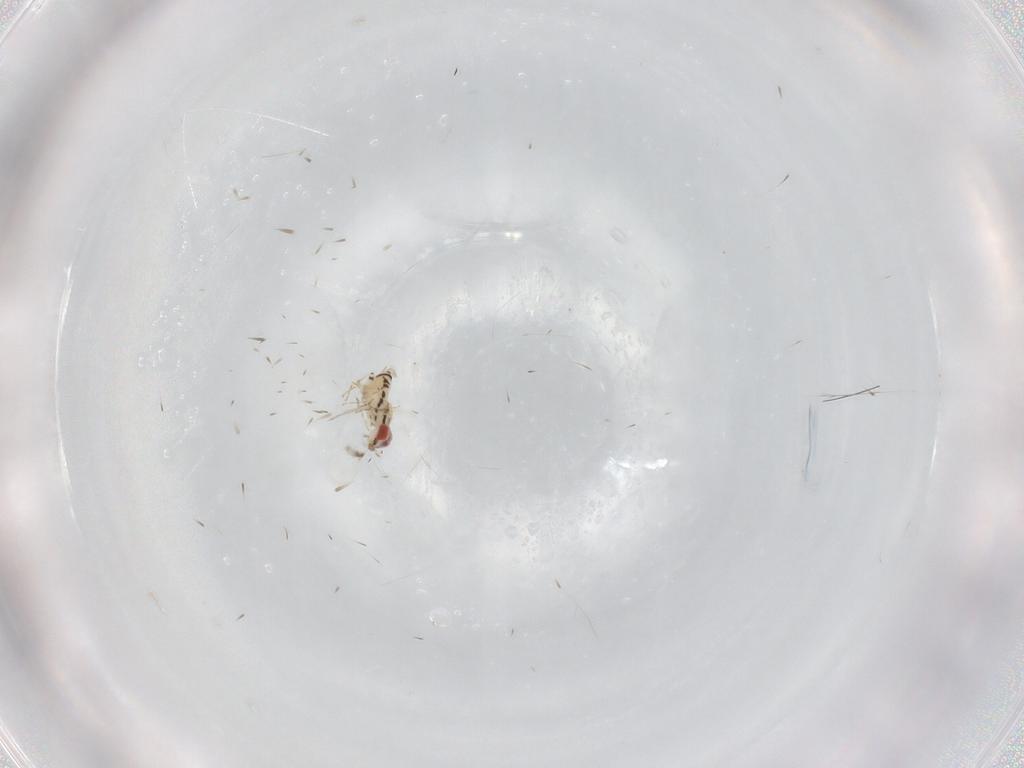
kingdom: Animalia
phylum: Arthropoda
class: Insecta
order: Hymenoptera
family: Trichogrammatidae
